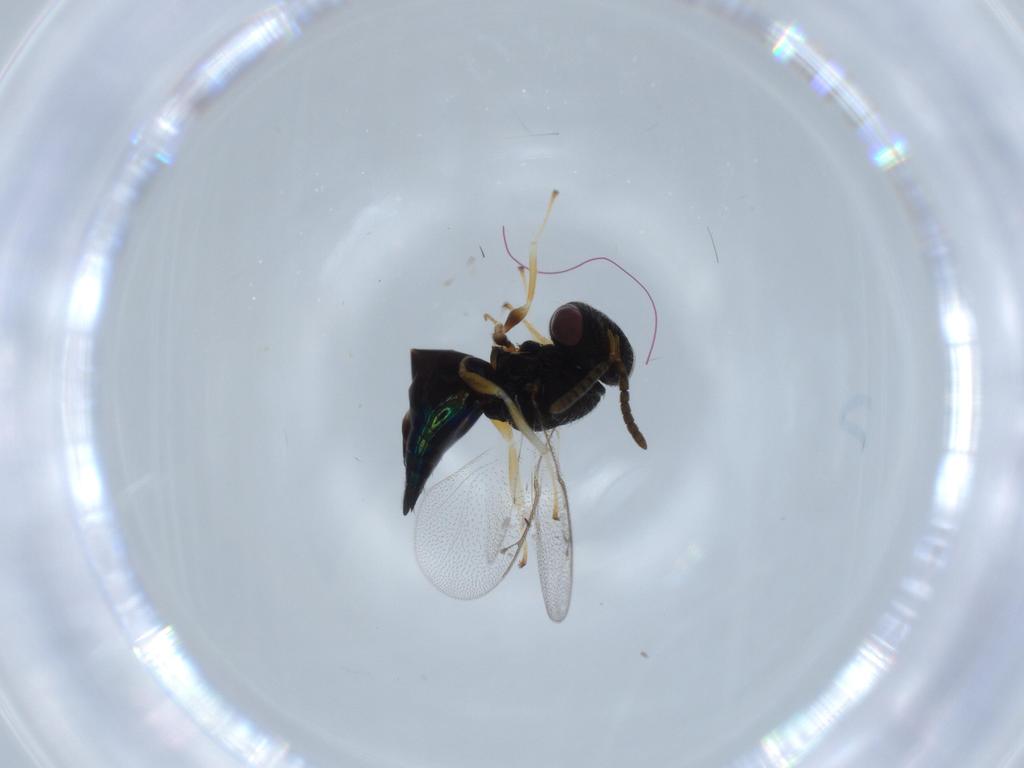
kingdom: Animalia
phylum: Arthropoda
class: Insecta
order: Hymenoptera
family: Pteromalidae
